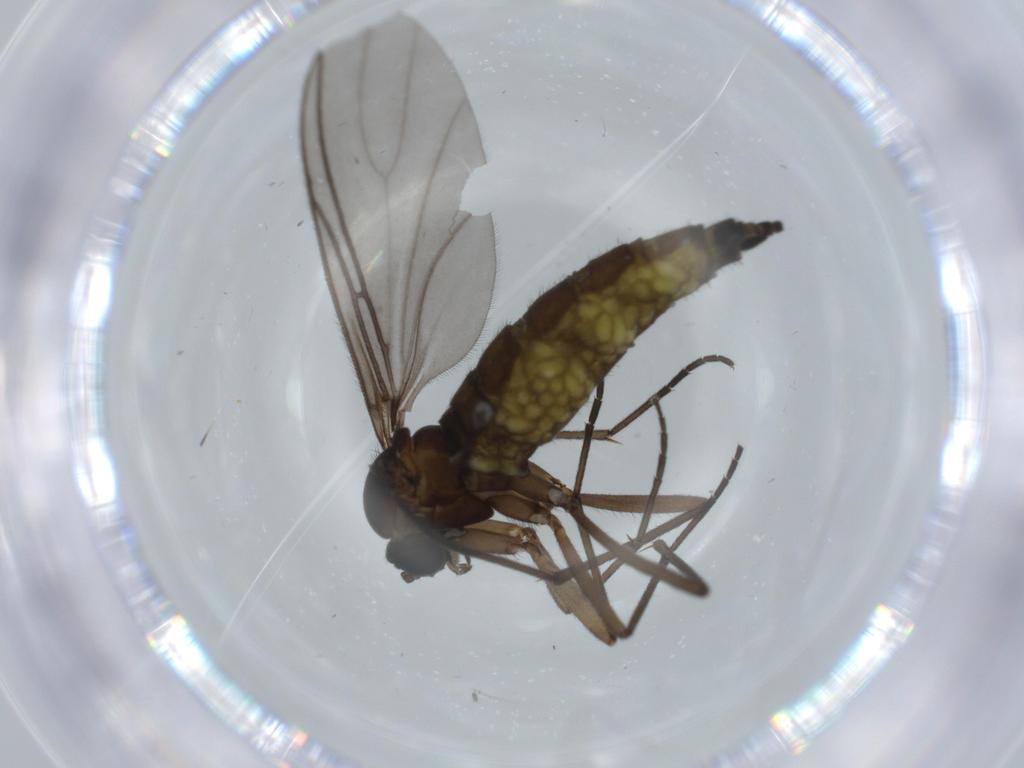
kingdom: Animalia
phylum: Arthropoda
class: Insecta
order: Diptera
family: Sciaridae
